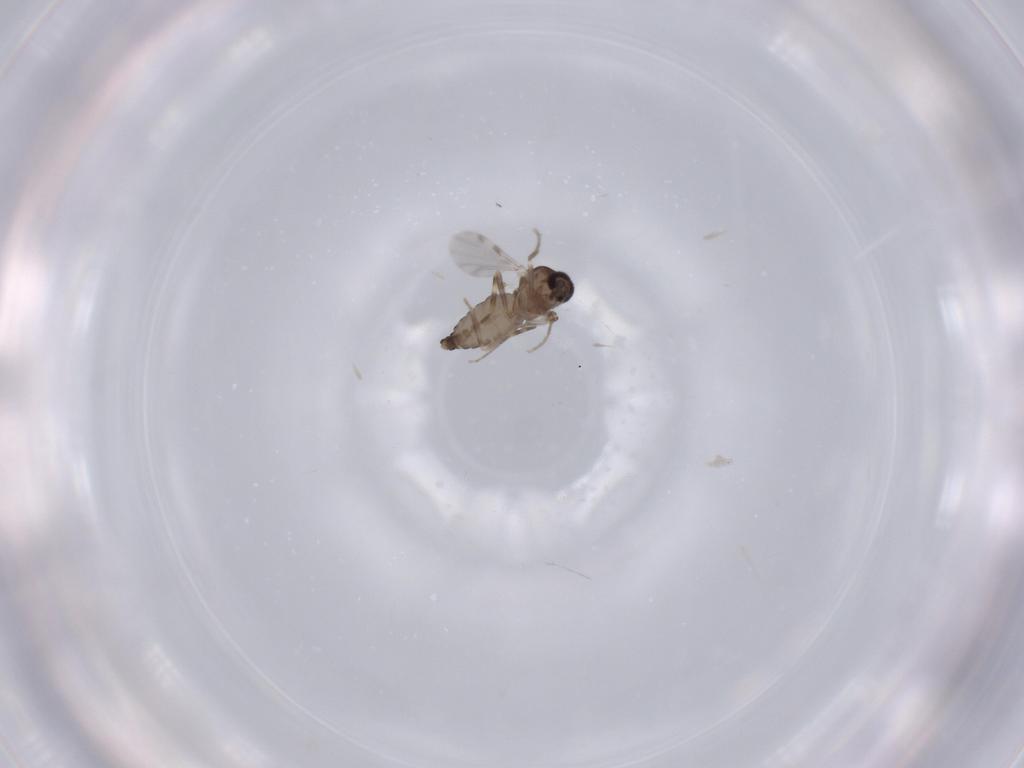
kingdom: Animalia
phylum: Arthropoda
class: Insecta
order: Diptera
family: Ceratopogonidae
